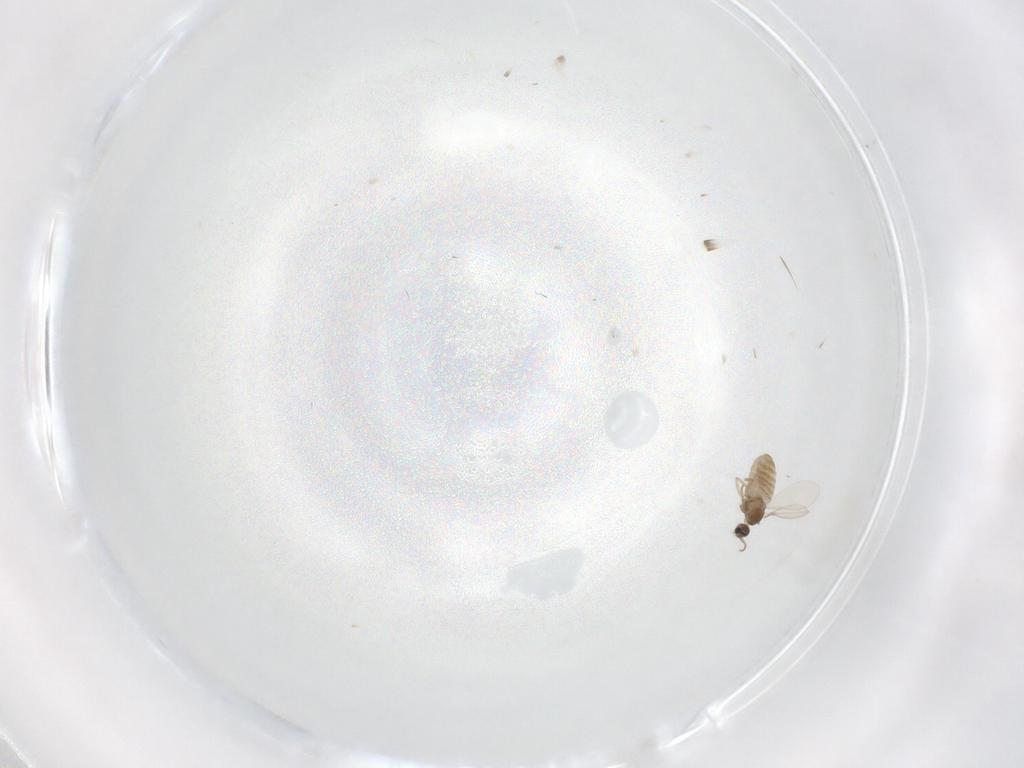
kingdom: Animalia
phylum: Arthropoda
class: Insecta
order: Diptera
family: Cecidomyiidae
